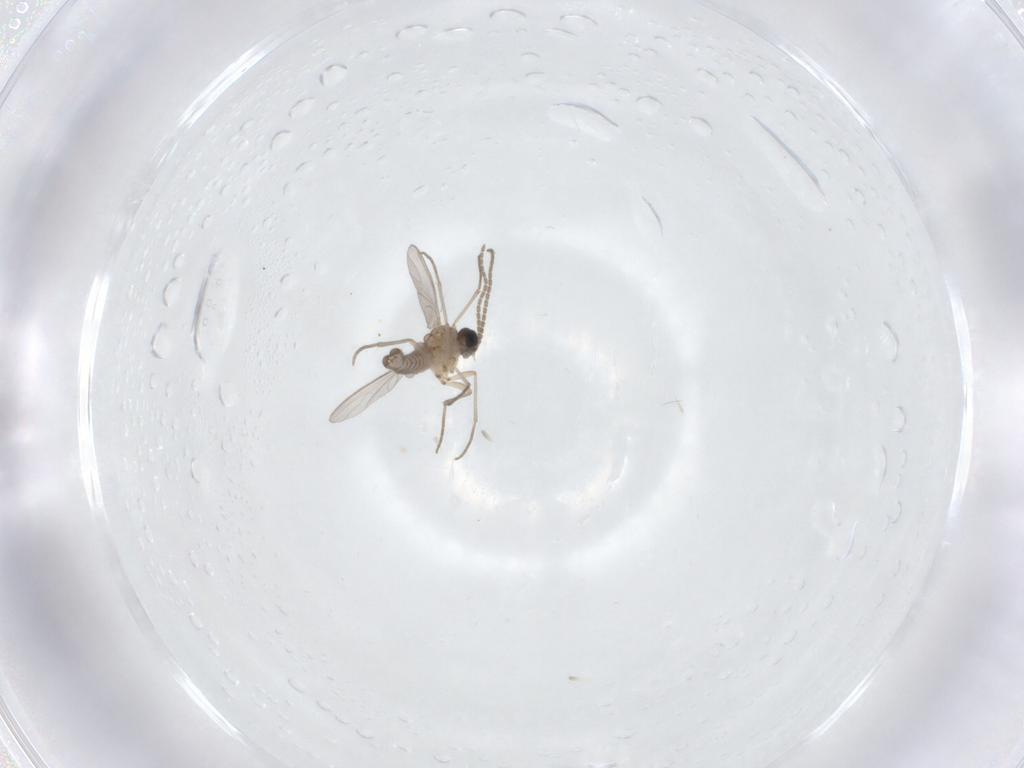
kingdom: Animalia
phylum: Arthropoda
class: Insecta
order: Diptera
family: Sciaridae
